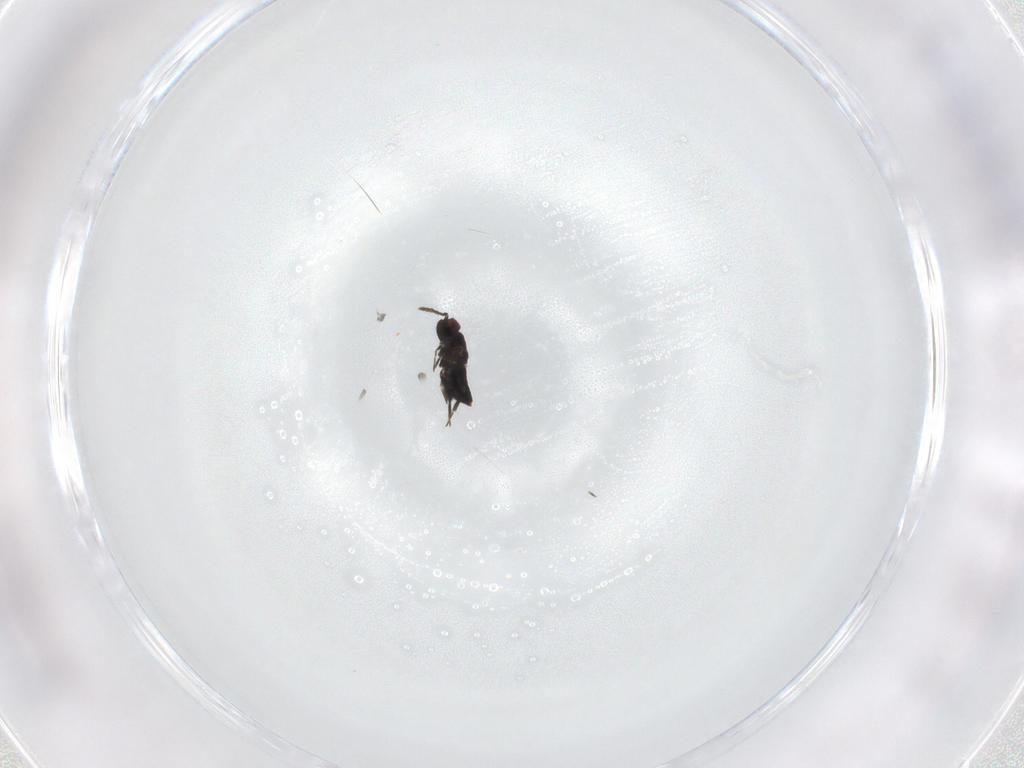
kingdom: Animalia
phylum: Arthropoda
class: Insecta
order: Hymenoptera
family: Trichogrammatidae
